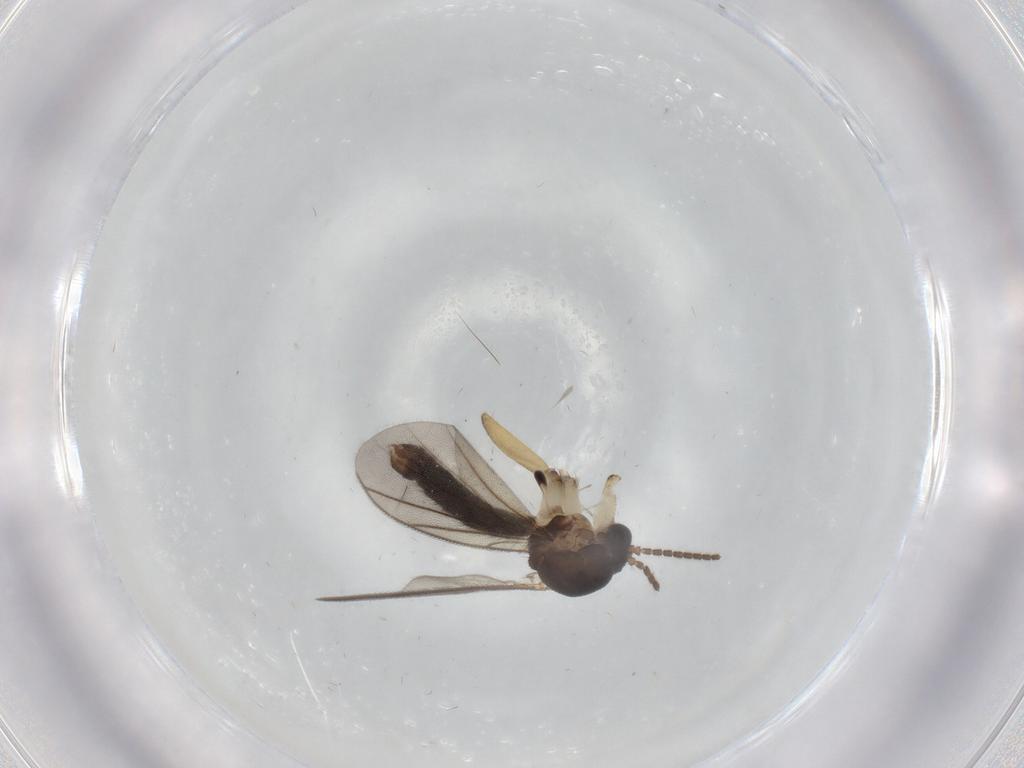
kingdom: Animalia
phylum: Arthropoda
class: Insecta
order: Diptera
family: Mycetophilidae
